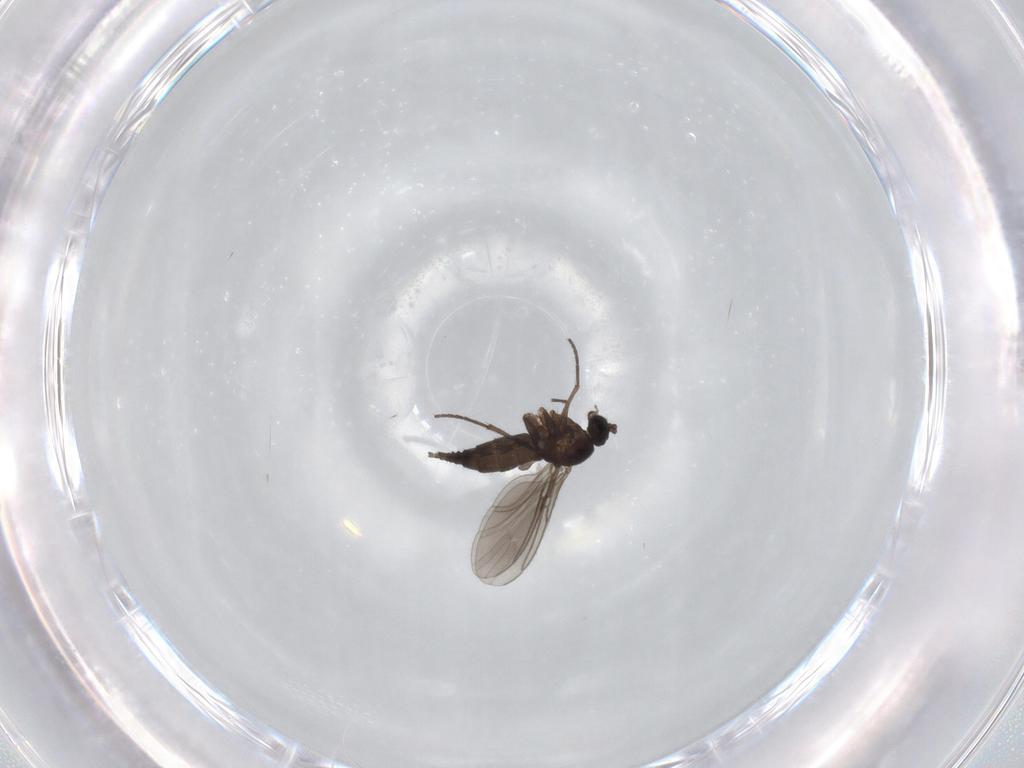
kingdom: Animalia
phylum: Arthropoda
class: Insecta
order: Diptera
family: Sciaridae
